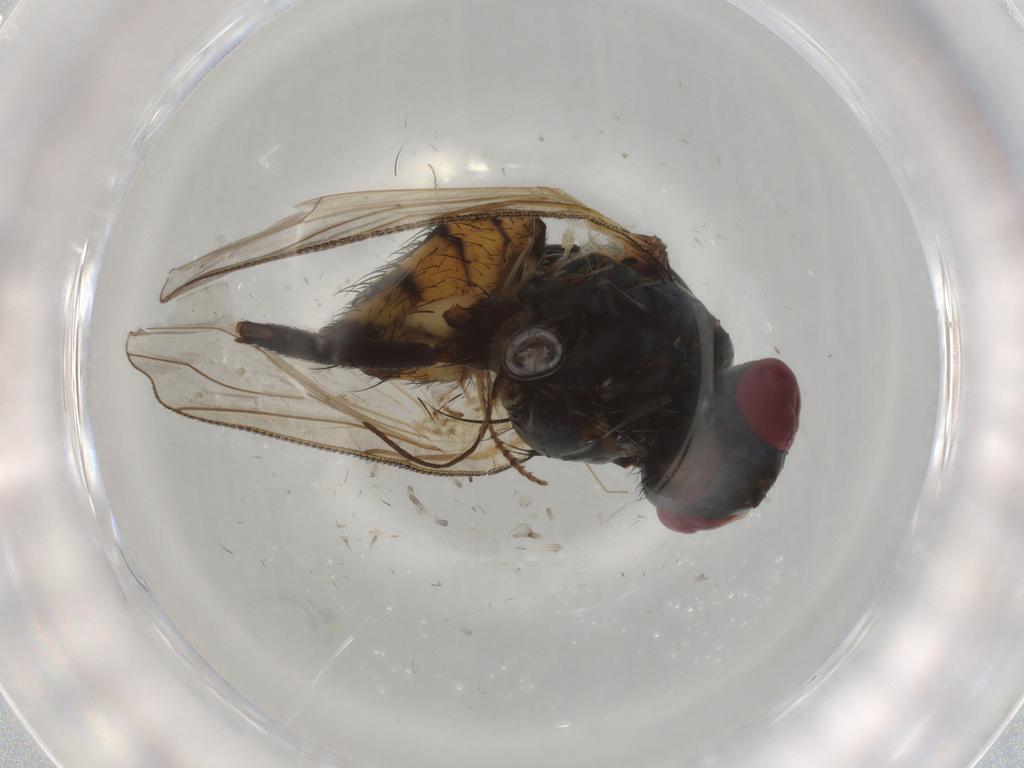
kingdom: Animalia
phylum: Arthropoda
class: Insecta
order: Diptera
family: Anthomyiidae
